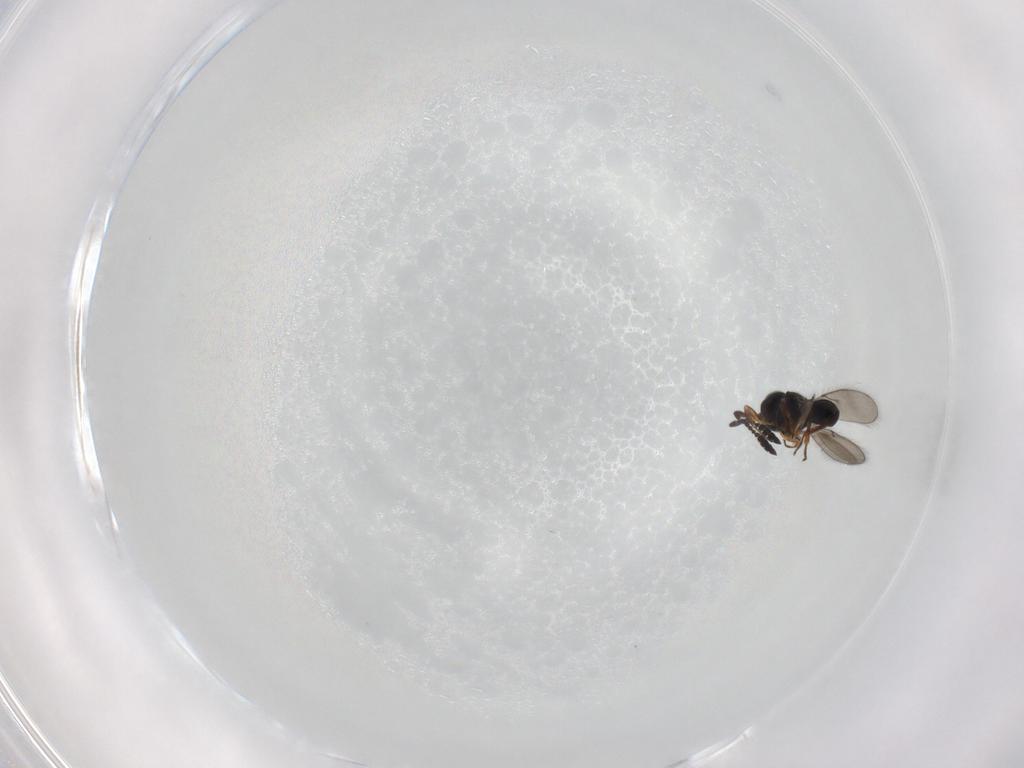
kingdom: Animalia
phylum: Arthropoda
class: Insecta
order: Hymenoptera
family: Scelionidae
